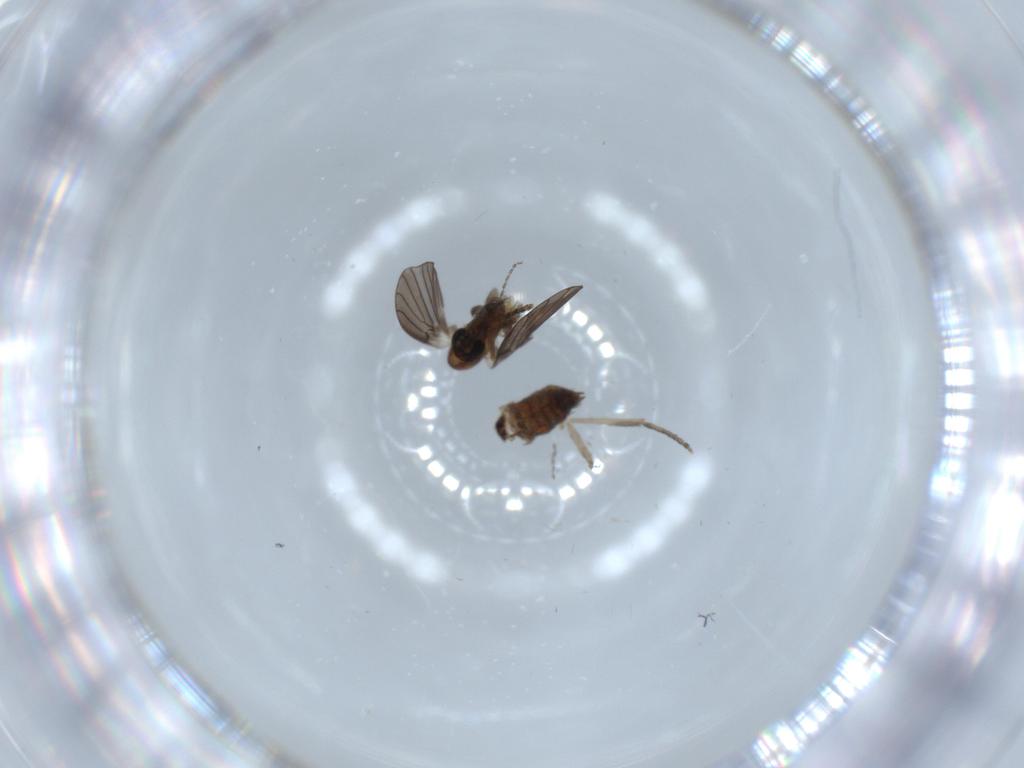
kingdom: Animalia
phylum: Arthropoda
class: Insecta
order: Diptera
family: Psychodidae
